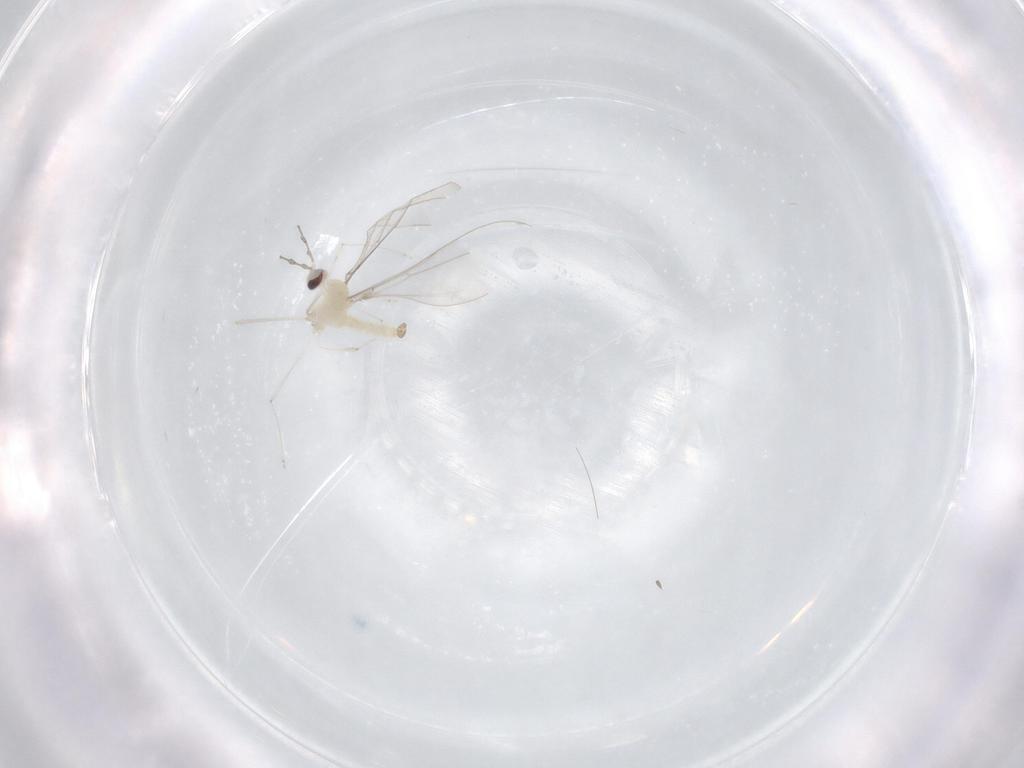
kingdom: Animalia
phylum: Arthropoda
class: Insecta
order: Diptera
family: Cecidomyiidae
